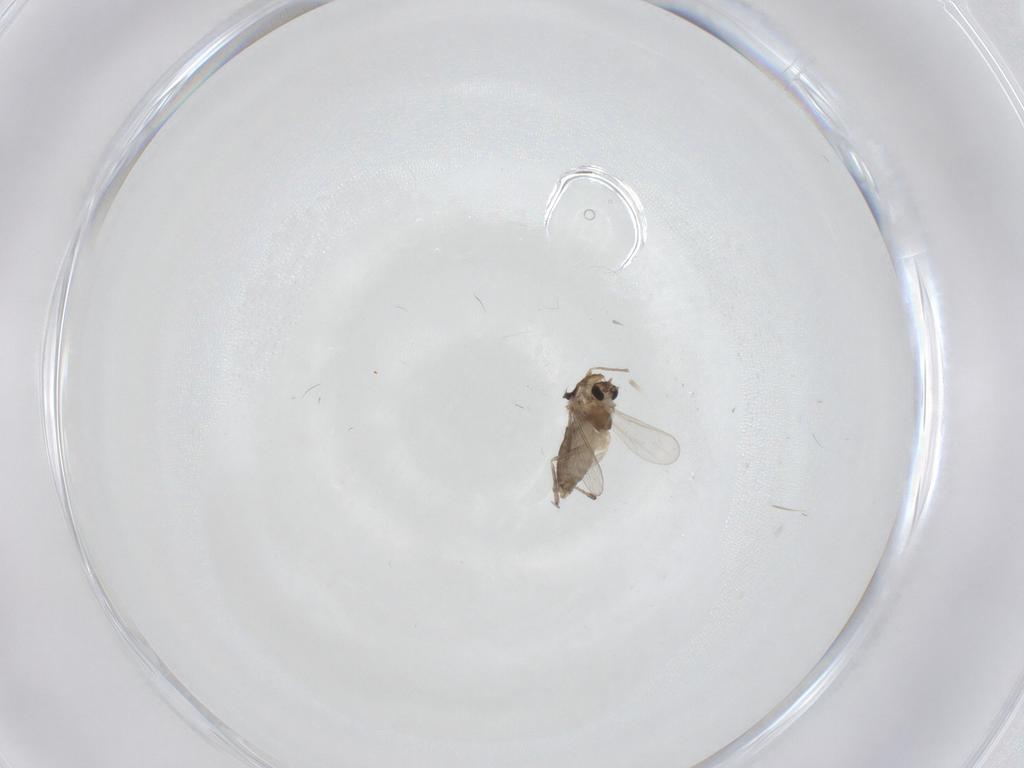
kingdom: Animalia
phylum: Arthropoda
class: Insecta
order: Diptera
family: Chironomidae
